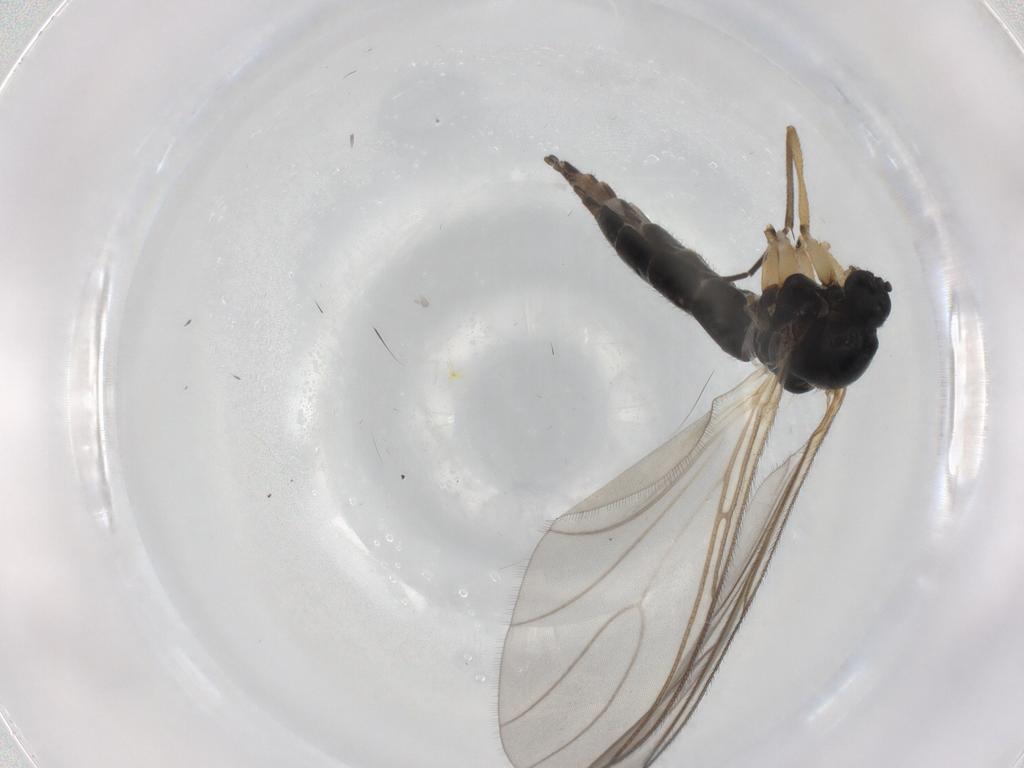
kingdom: Animalia
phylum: Arthropoda
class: Insecta
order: Diptera
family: Sciaridae
